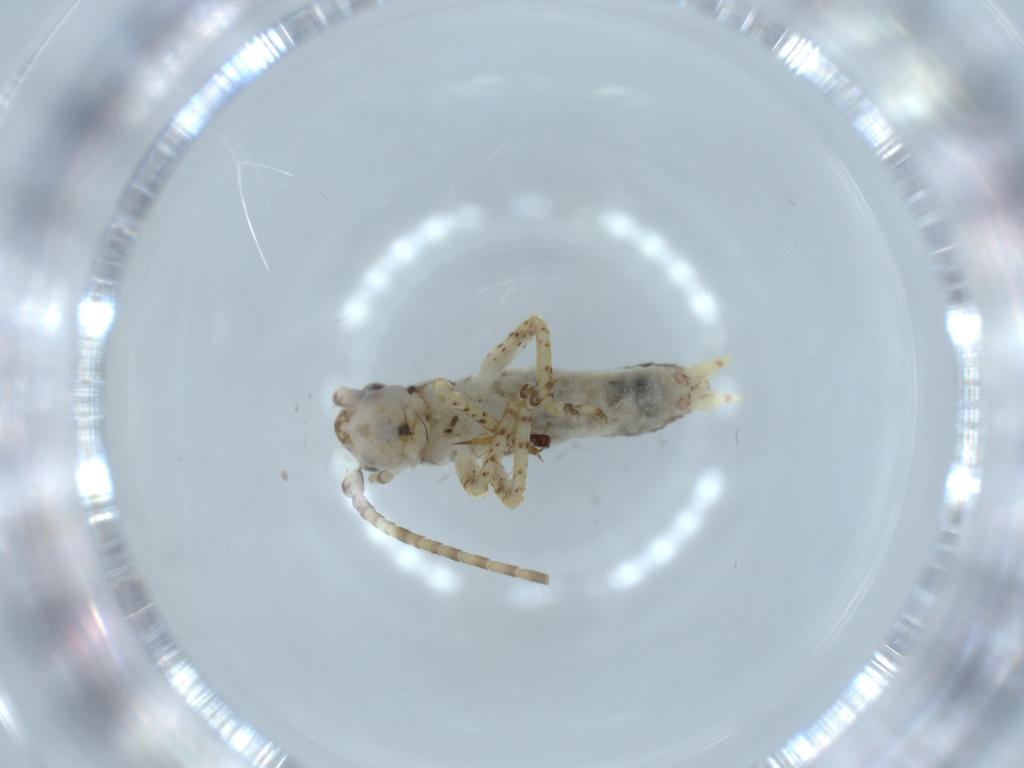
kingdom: Animalia
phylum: Arthropoda
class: Insecta
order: Orthoptera
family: Gryllidae
